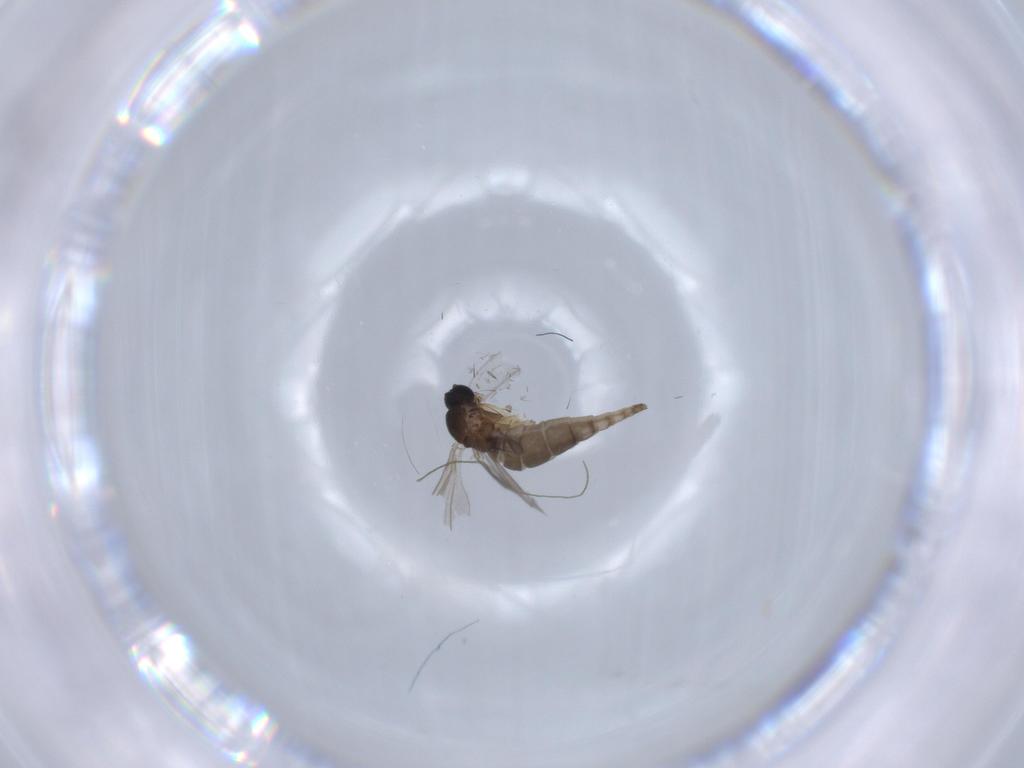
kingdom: Animalia
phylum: Arthropoda
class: Insecta
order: Diptera
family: Sciaridae
